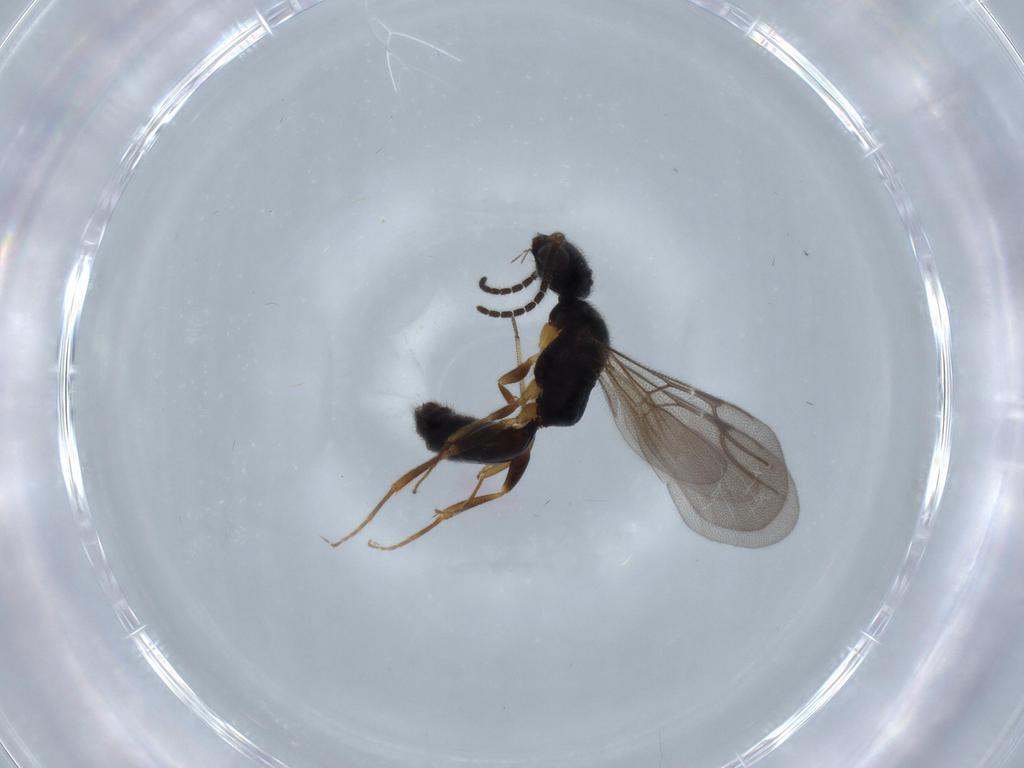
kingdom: Animalia
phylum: Arthropoda
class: Insecta
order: Hymenoptera
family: Bethylidae
